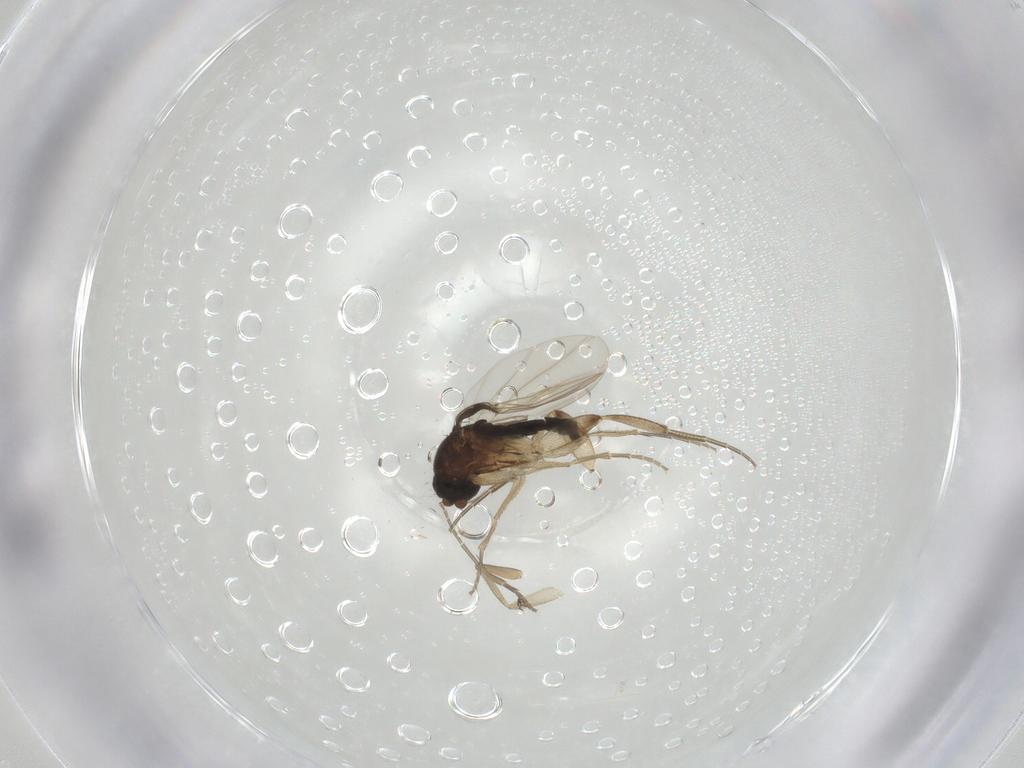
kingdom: Animalia
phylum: Arthropoda
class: Insecta
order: Diptera
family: Phoridae
